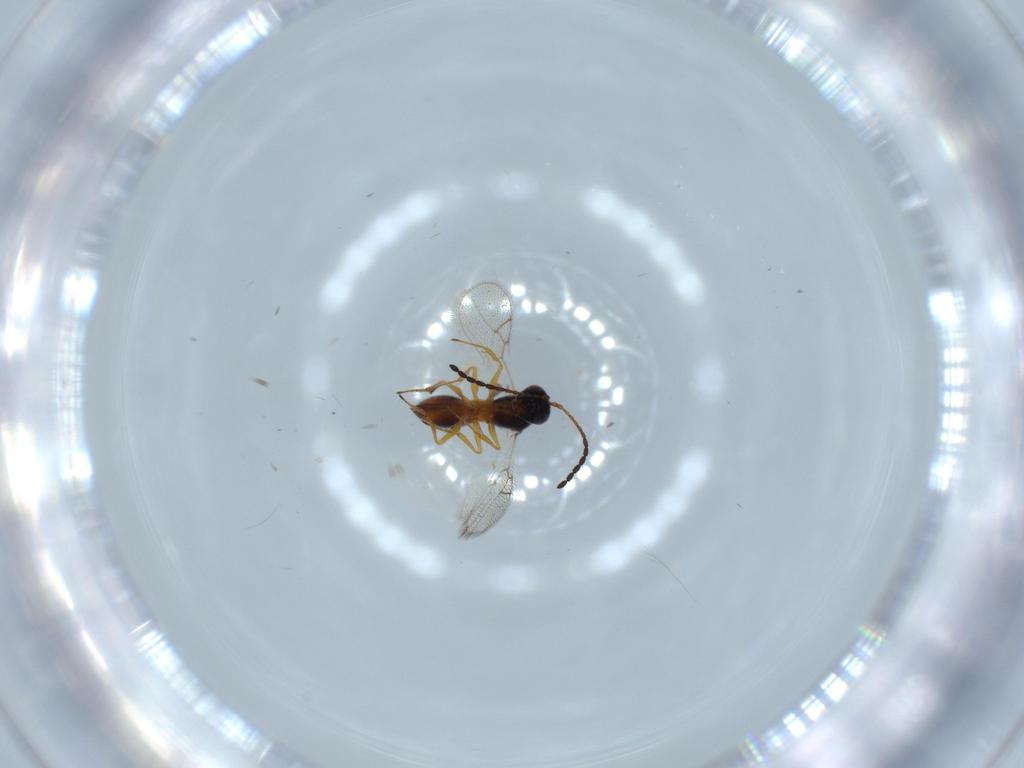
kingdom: Animalia
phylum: Arthropoda
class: Insecta
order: Hymenoptera
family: Figitidae
